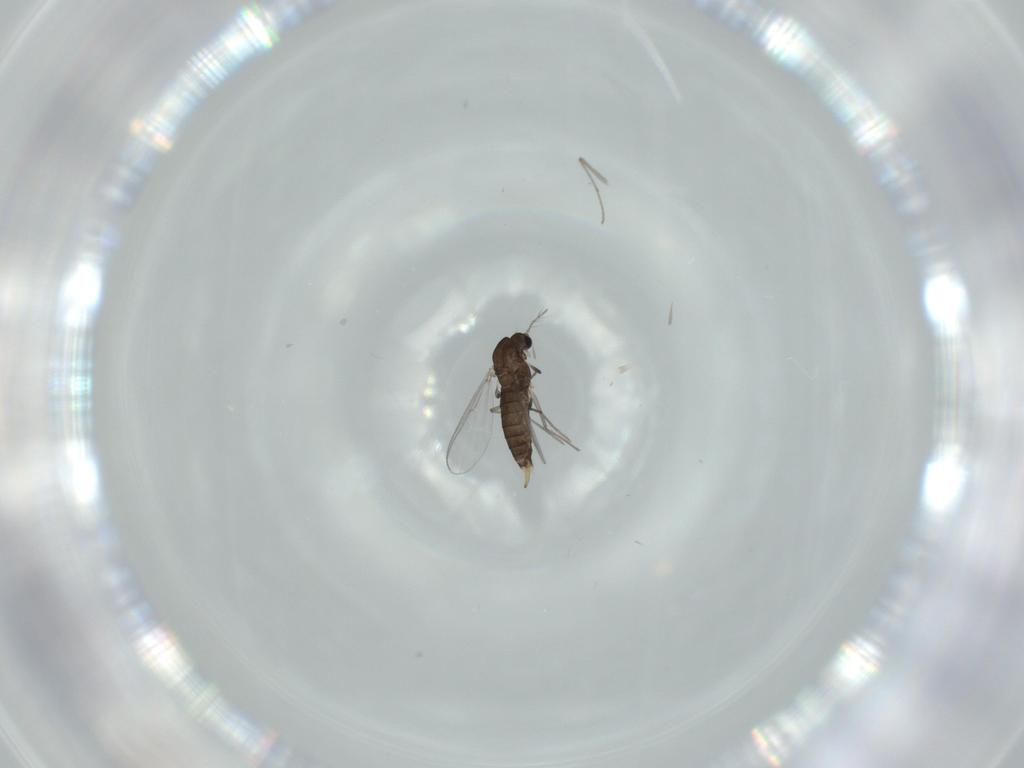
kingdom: Animalia
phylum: Arthropoda
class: Insecta
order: Diptera
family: Chironomidae
